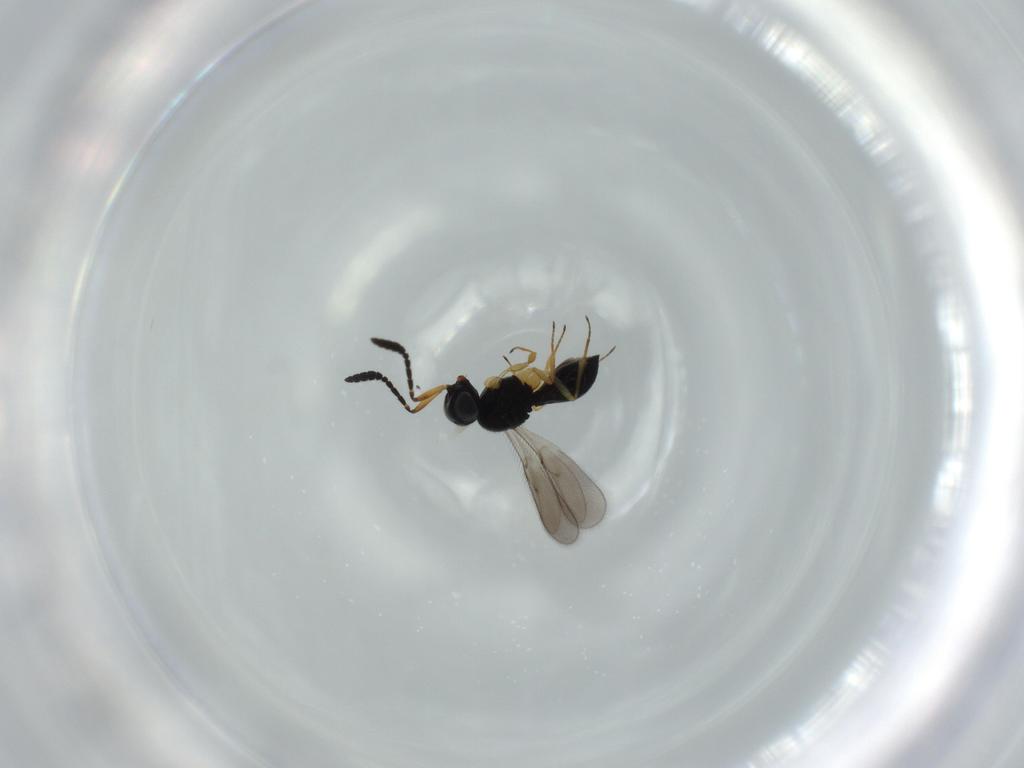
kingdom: Animalia
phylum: Arthropoda
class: Insecta
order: Hymenoptera
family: Scelionidae
